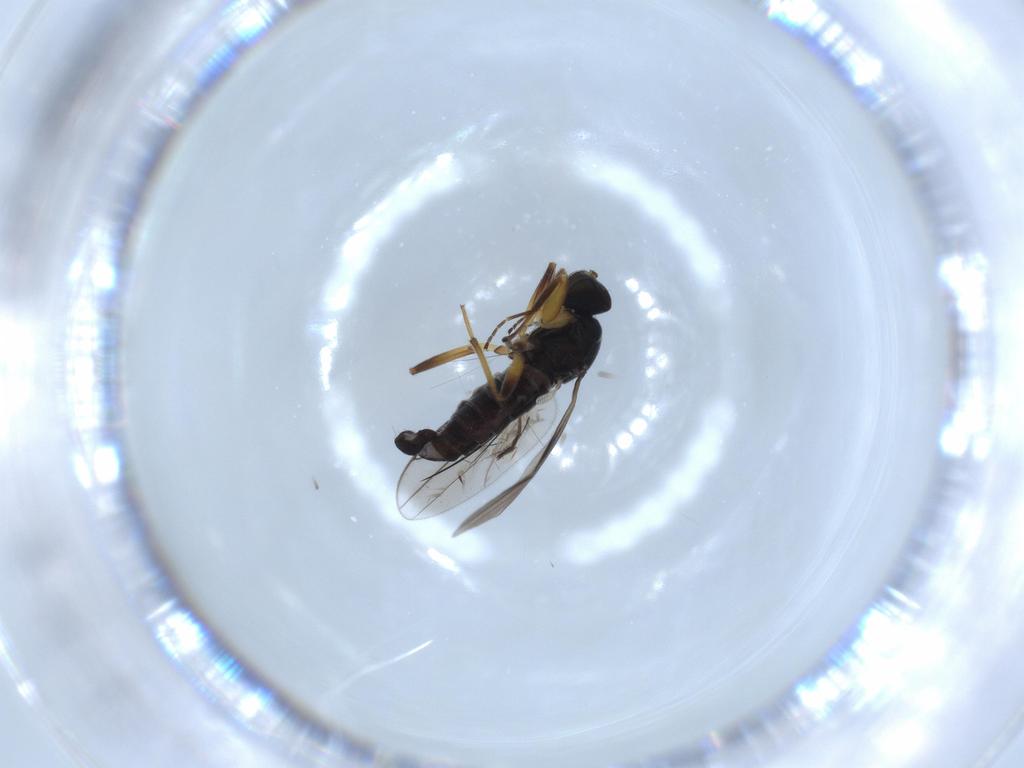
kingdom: Animalia
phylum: Arthropoda
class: Insecta
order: Diptera
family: Hybotidae
